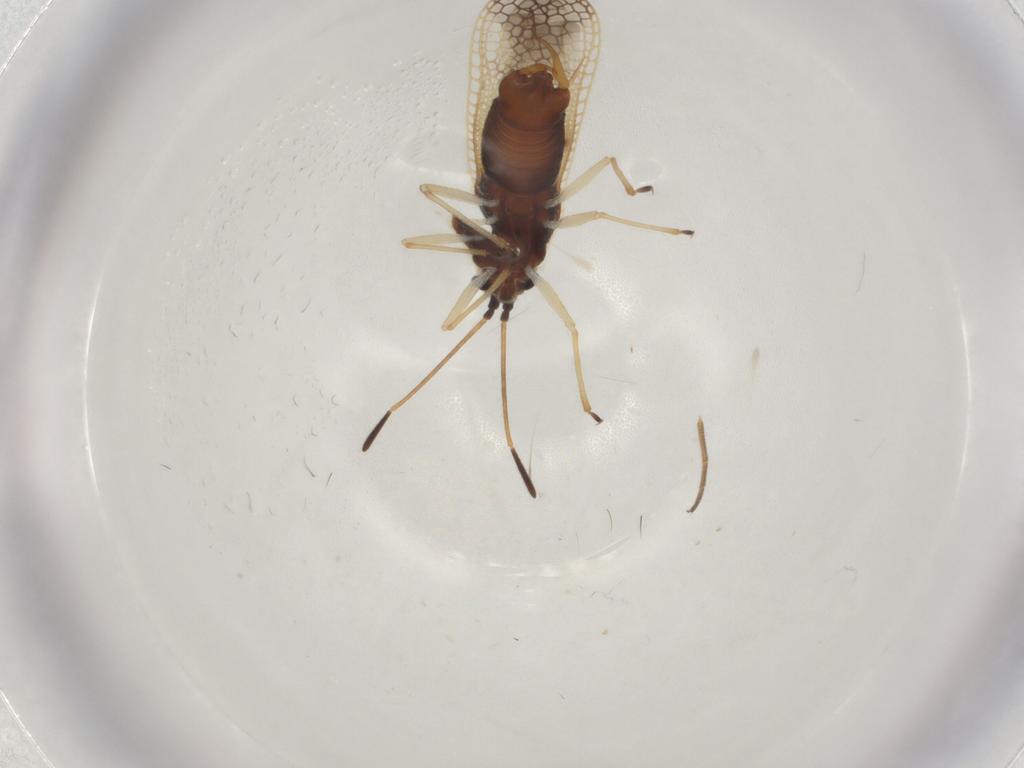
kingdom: Animalia
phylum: Arthropoda
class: Insecta
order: Hemiptera
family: Tingidae
